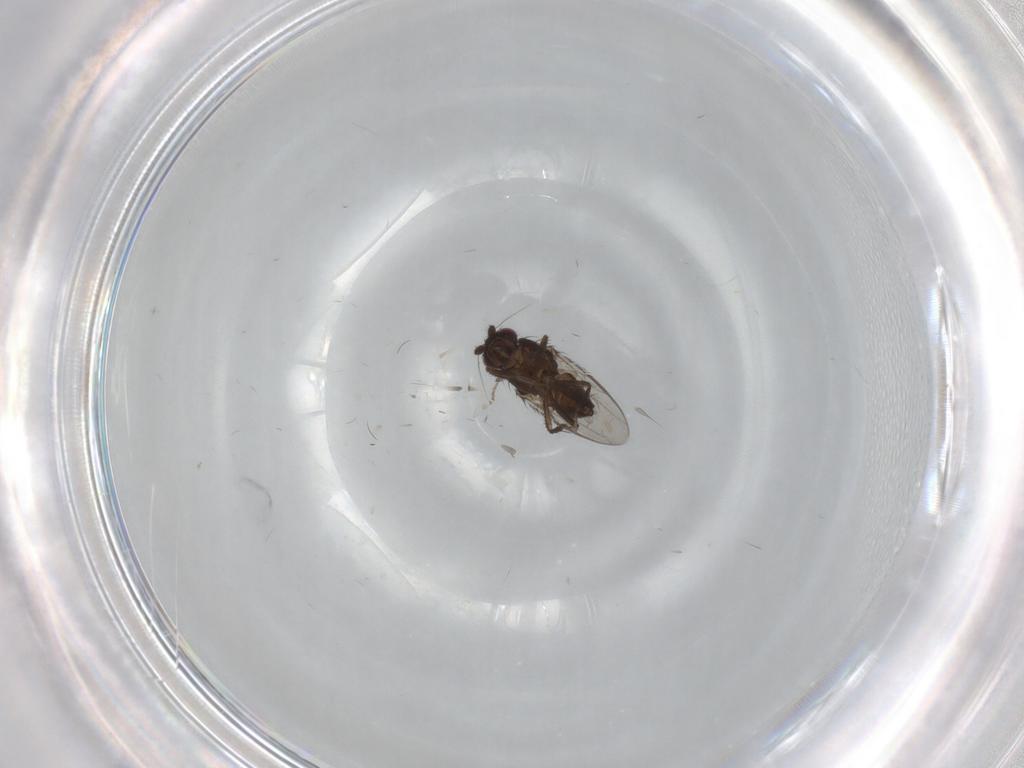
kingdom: Animalia
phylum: Arthropoda
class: Insecta
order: Diptera
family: Sphaeroceridae
